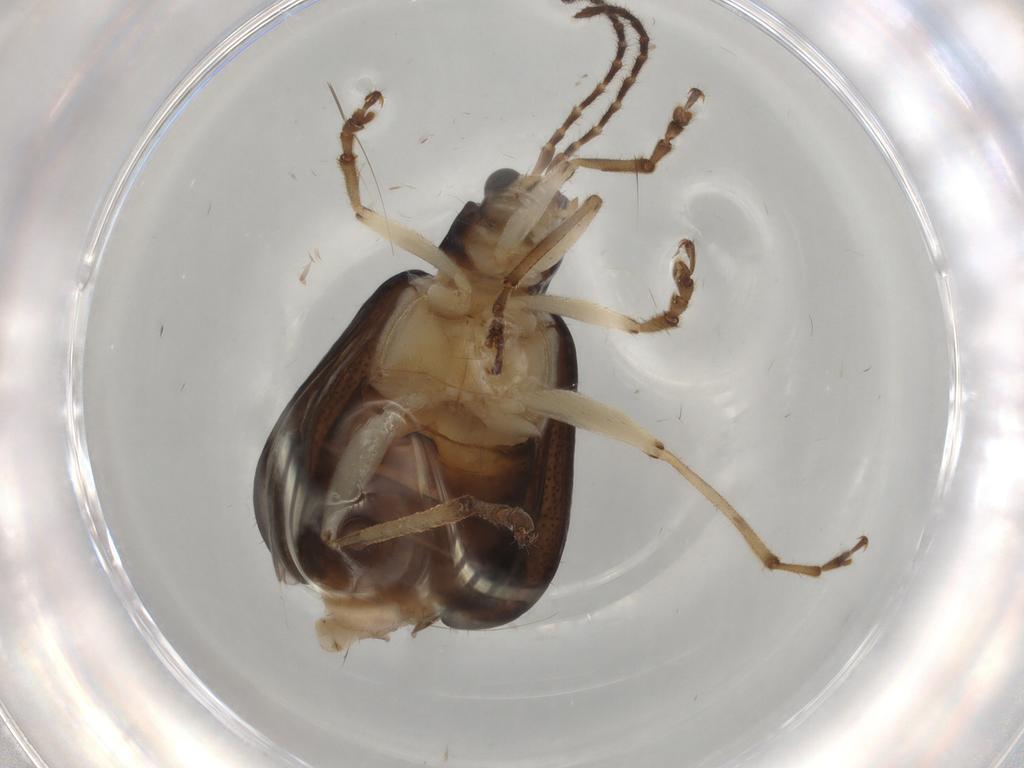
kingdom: Animalia
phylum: Arthropoda
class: Insecta
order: Coleoptera
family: Chrysomelidae
